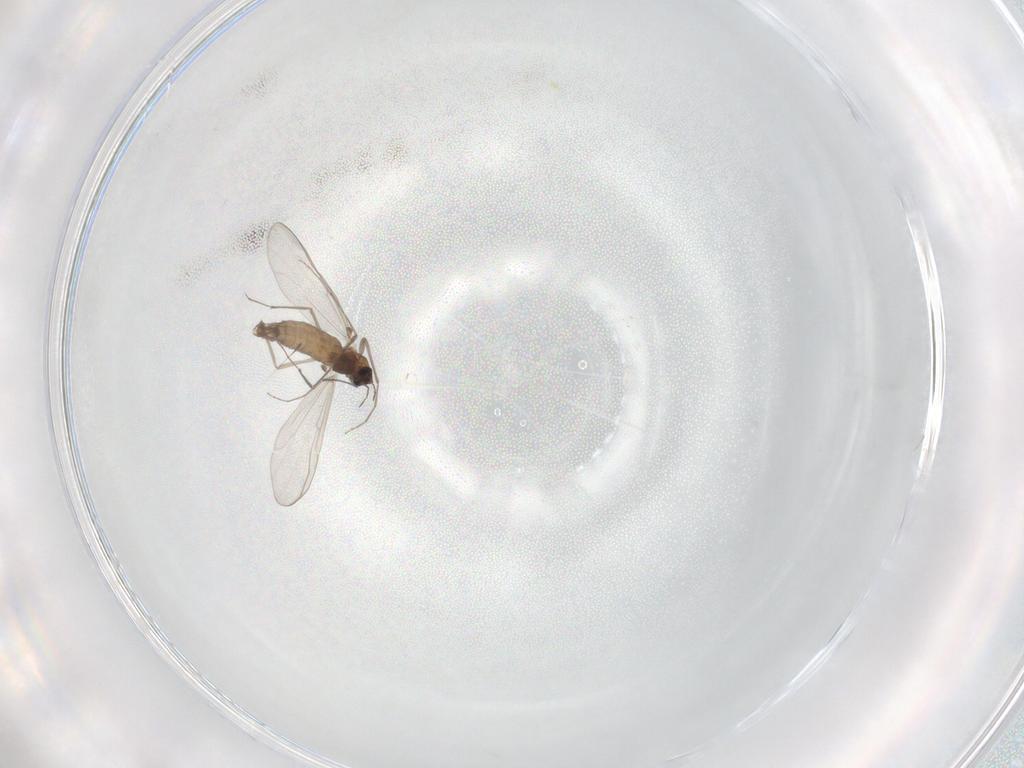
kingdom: Animalia
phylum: Arthropoda
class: Insecta
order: Diptera
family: Chironomidae
